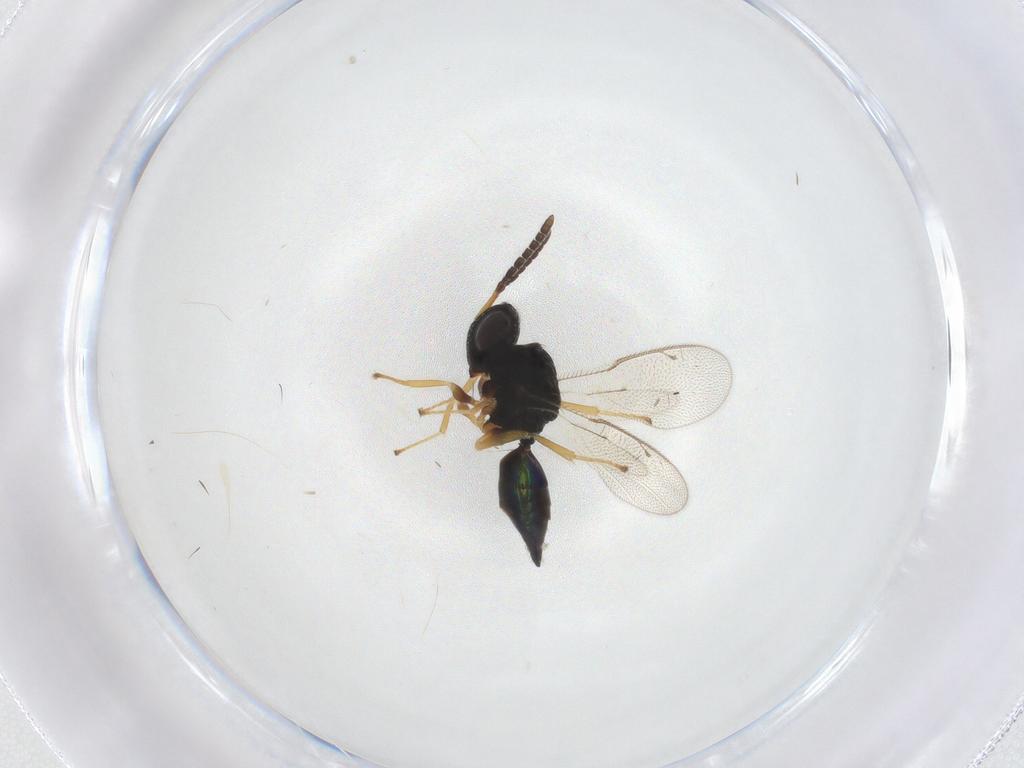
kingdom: Animalia
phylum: Arthropoda
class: Insecta
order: Hymenoptera
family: Pteromalidae
